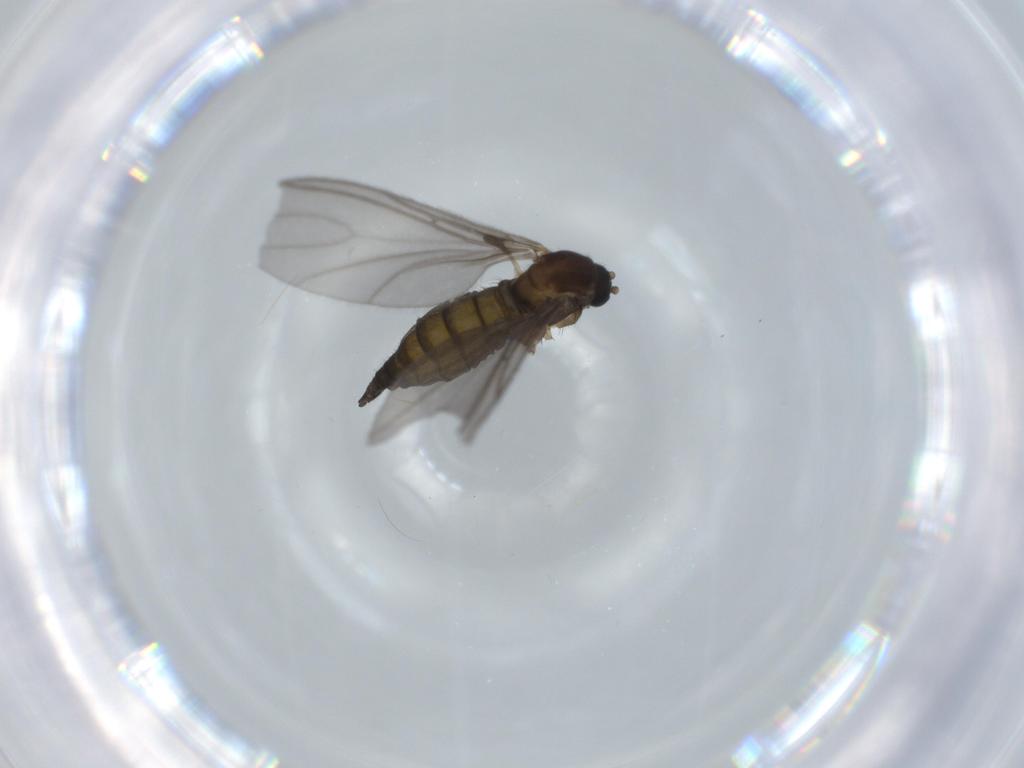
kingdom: Animalia
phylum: Arthropoda
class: Insecta
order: Diptera
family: Sciaridae
